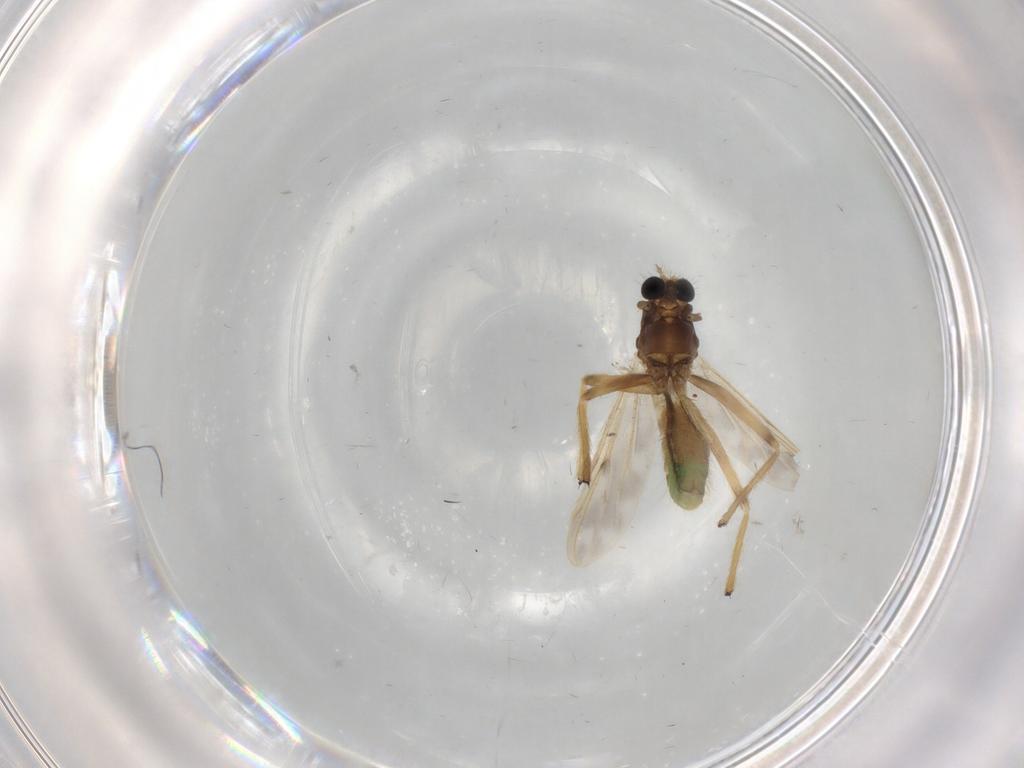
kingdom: Animalia
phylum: Arthropoda
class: Insecta
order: Diptera
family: Chironomidae
